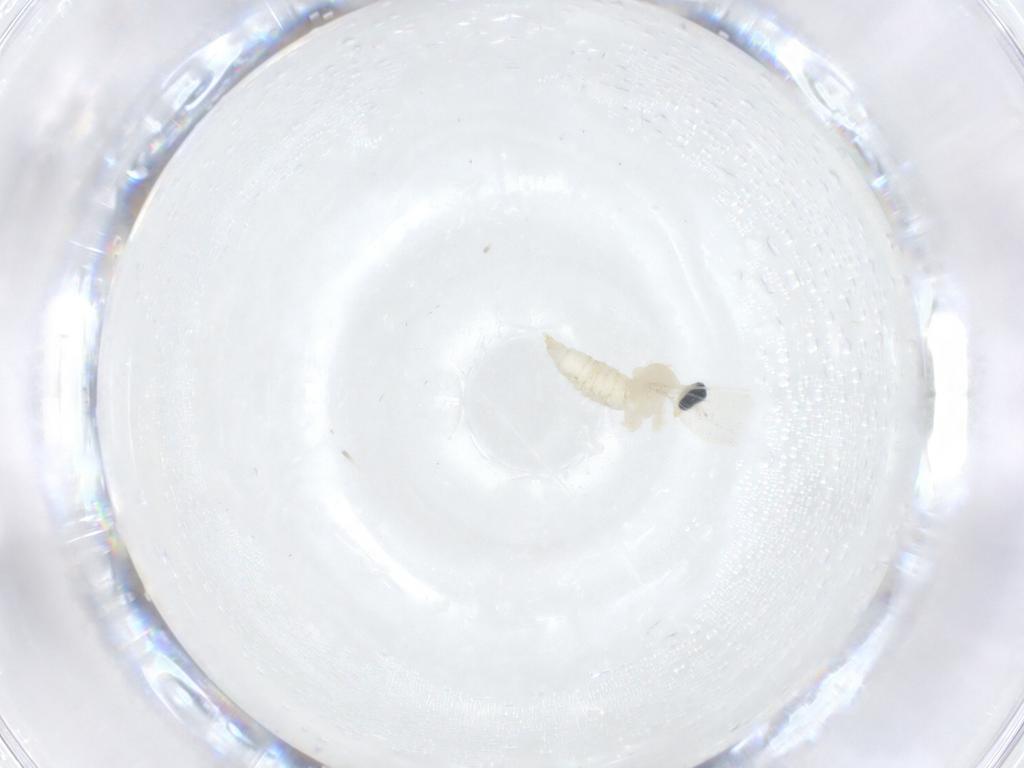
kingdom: Animalia
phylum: Arthropoda
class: Insecta
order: Diptera
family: Cecidomyiidae
